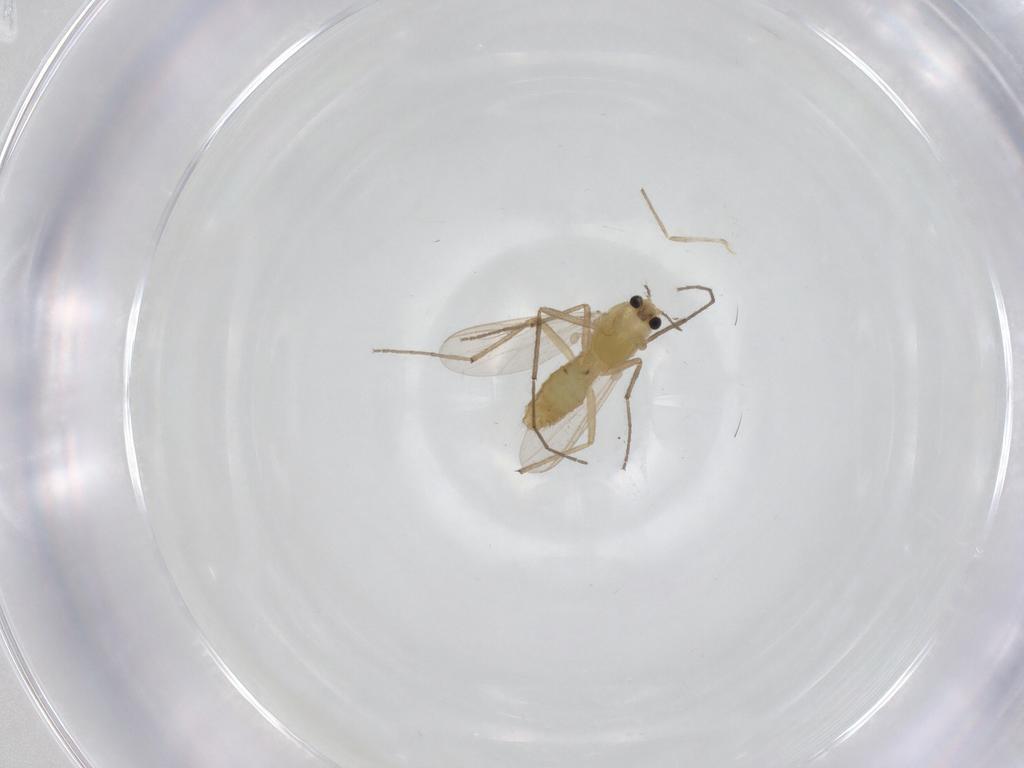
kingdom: Animalia
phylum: Arthropoda
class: Insecta
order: Diptera
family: Chironomidae
